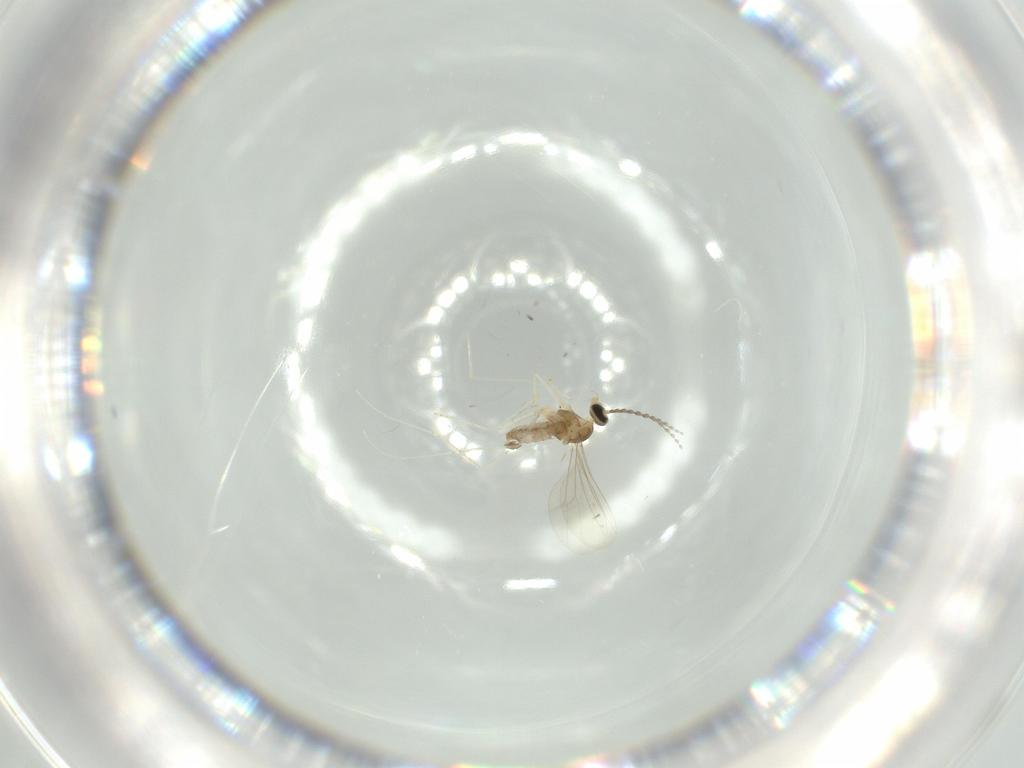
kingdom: Animalia
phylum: Arthropoda
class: Insecta
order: Diptera
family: Cecidomyiidae
